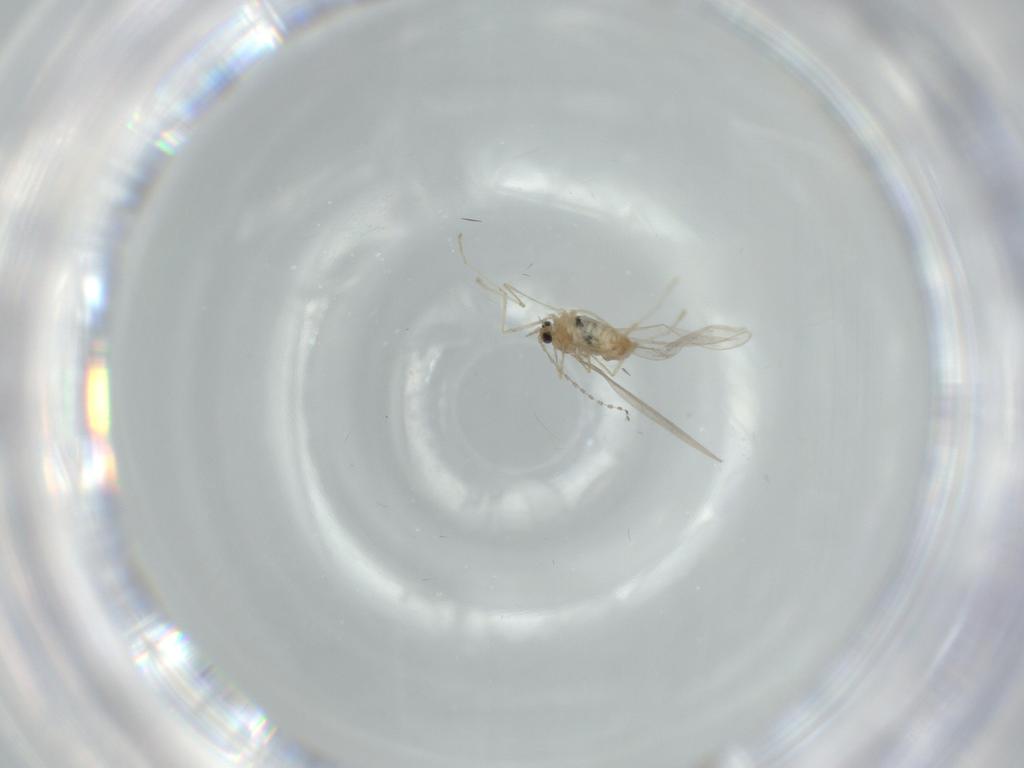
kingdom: Animalia
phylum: Arthropoda
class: Insecta
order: Diptera
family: Cecidomyiidae
